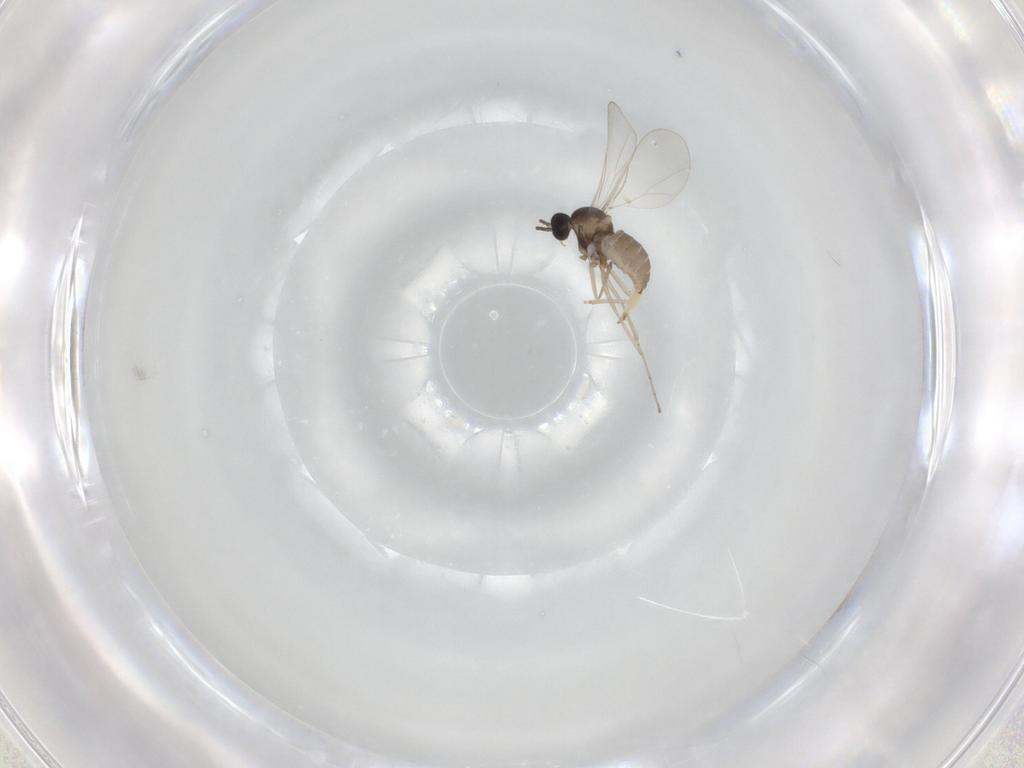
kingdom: Animalia
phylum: Arthropoda
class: Insecta
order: Diptera
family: Cecidomyiidae
